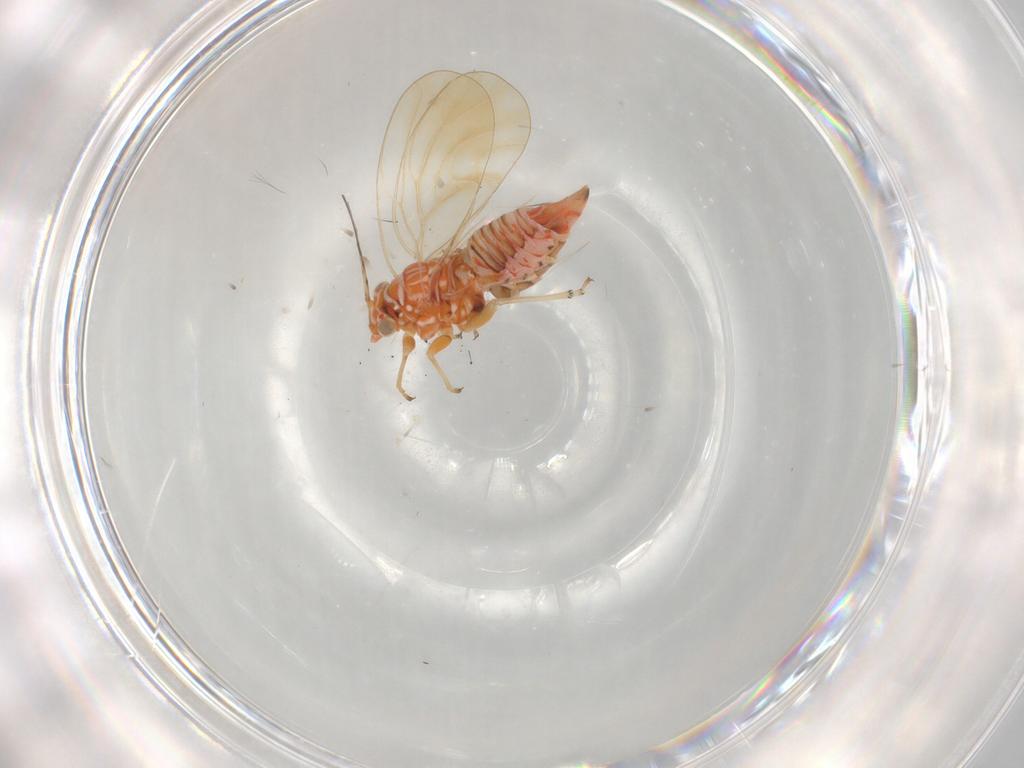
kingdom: Animalia
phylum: Arthropoda
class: Insecta
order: Hemiptera
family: Psyllidae
